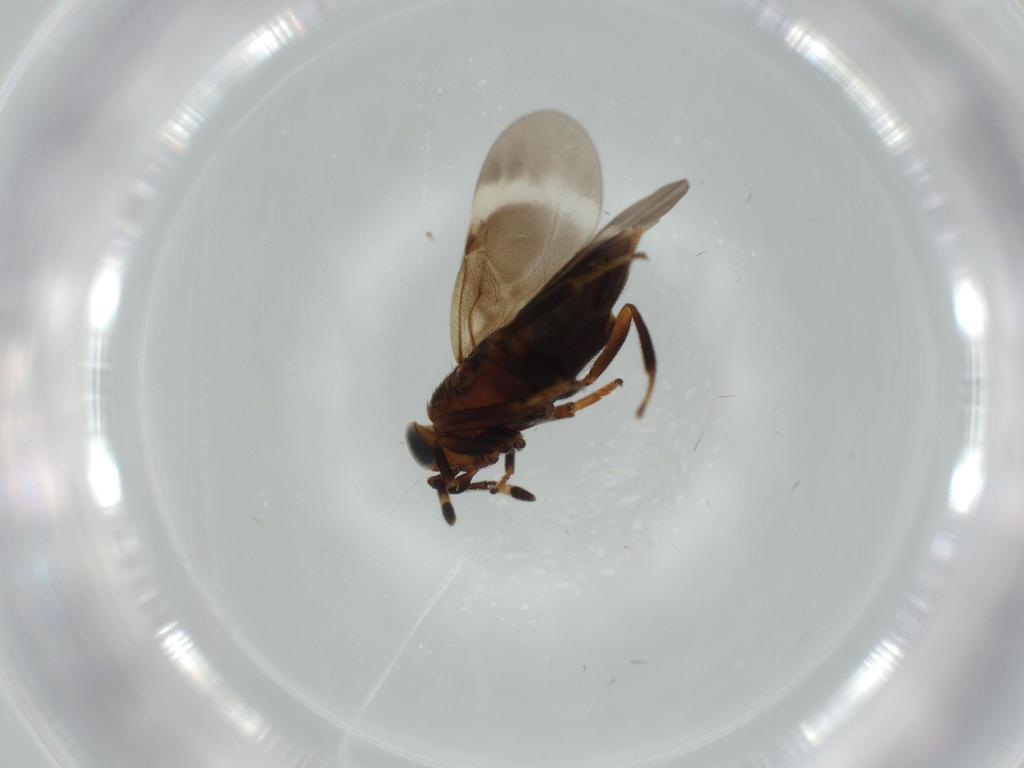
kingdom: Animalia
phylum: Arthropoda
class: Insecta
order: Hymenoptera
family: Encyrtidae
